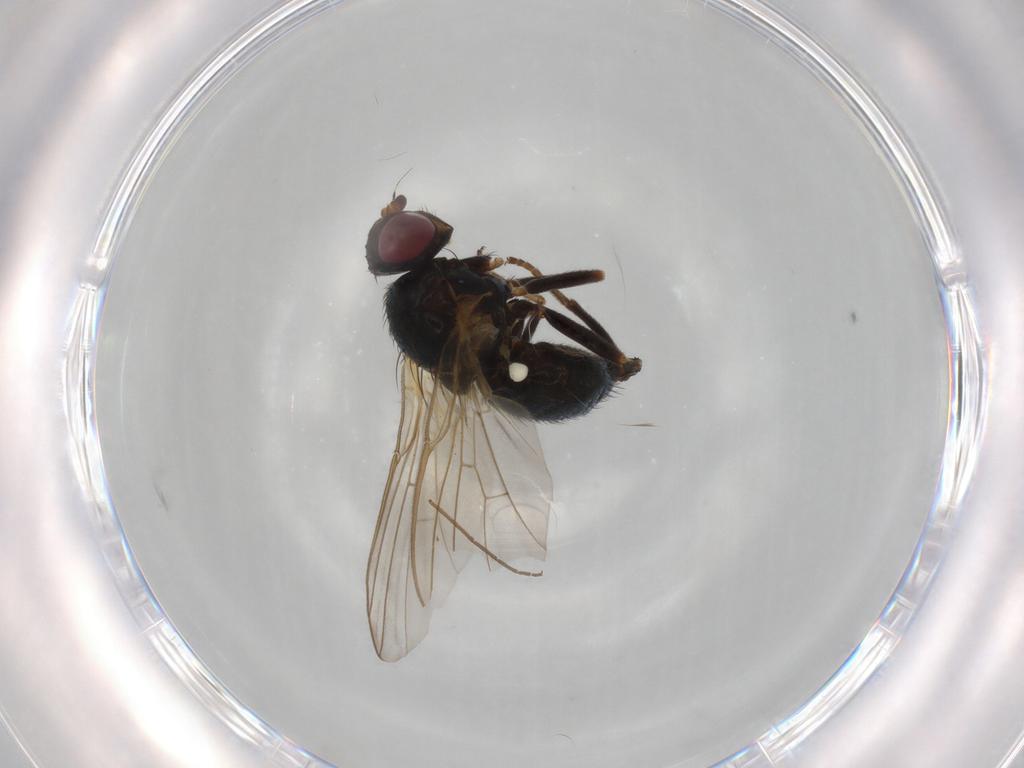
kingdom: Animalia
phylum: Arthropoda
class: Insecta
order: Diptera
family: Agromyzidae
